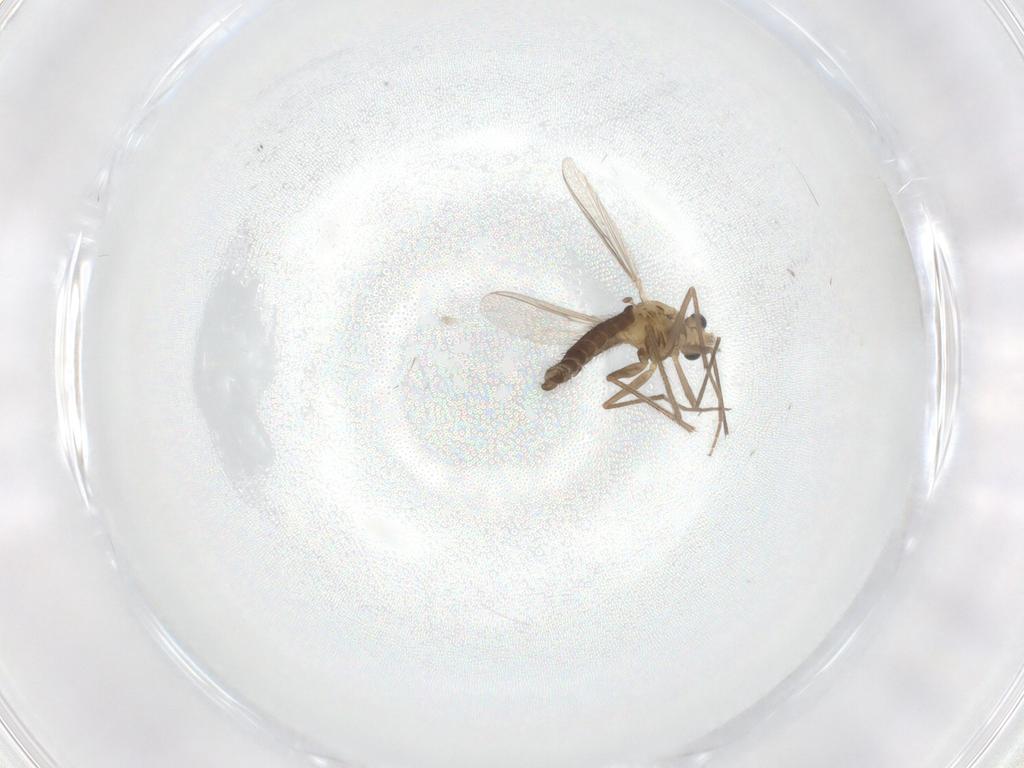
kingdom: Animalia
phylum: Arthropoda
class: Insecta
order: Diptera
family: Chironomidae
